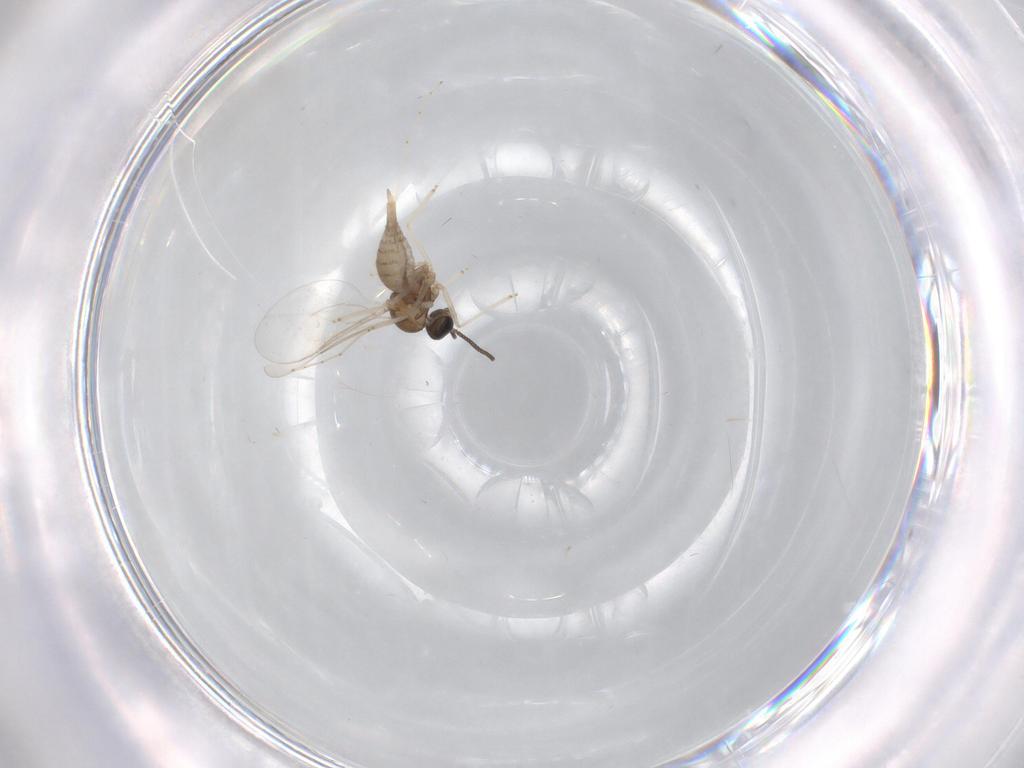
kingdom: Animalia
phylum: Arthropoda
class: Insecta
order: Diptera
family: Cecidomyiidae
